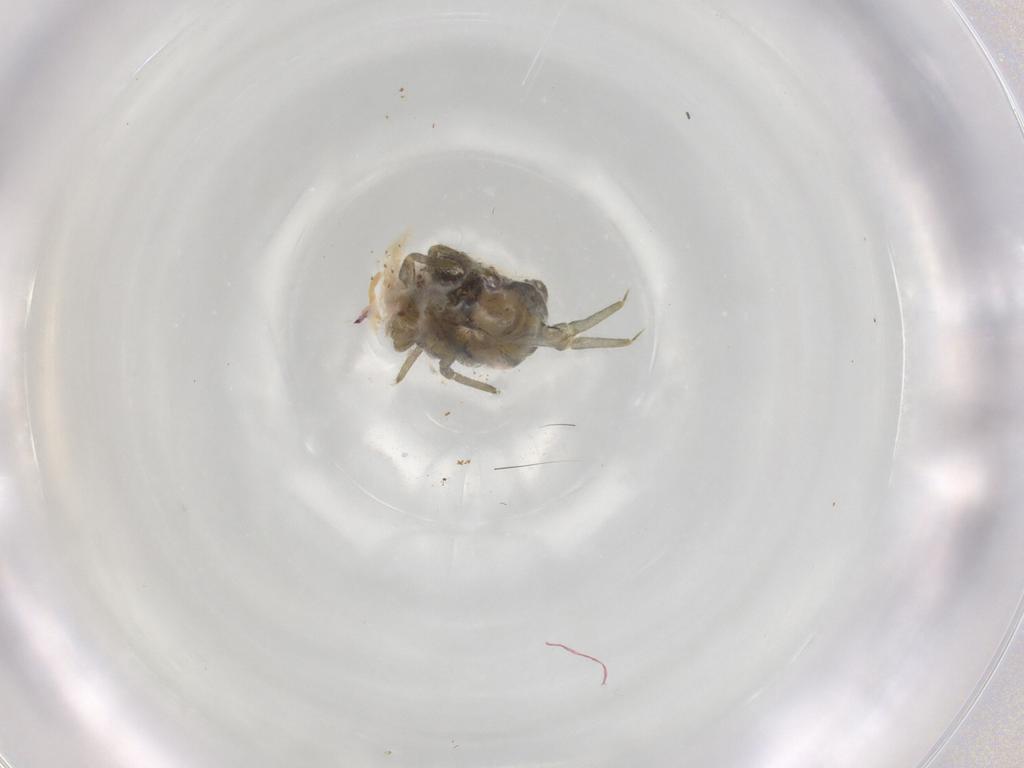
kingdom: Animalia
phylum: Arthropoda
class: Collembola
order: Symphypleona
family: Sminthuridae
